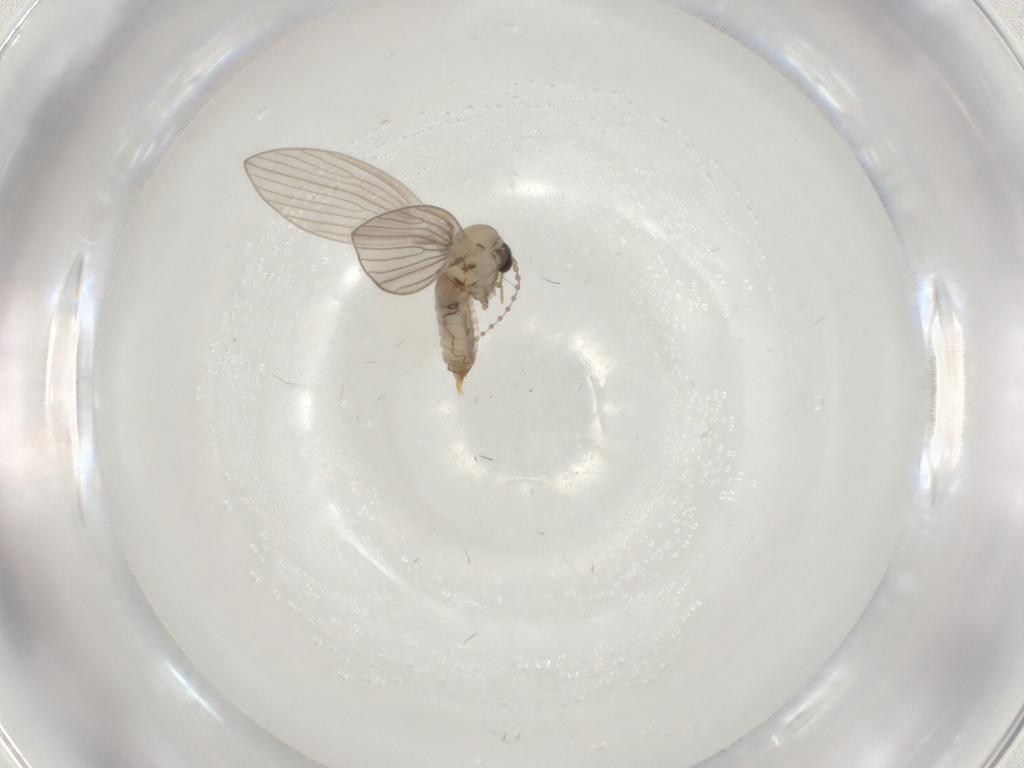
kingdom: Animalia
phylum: Arthropoda
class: Insecta
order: Diptera
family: Psychodidae
